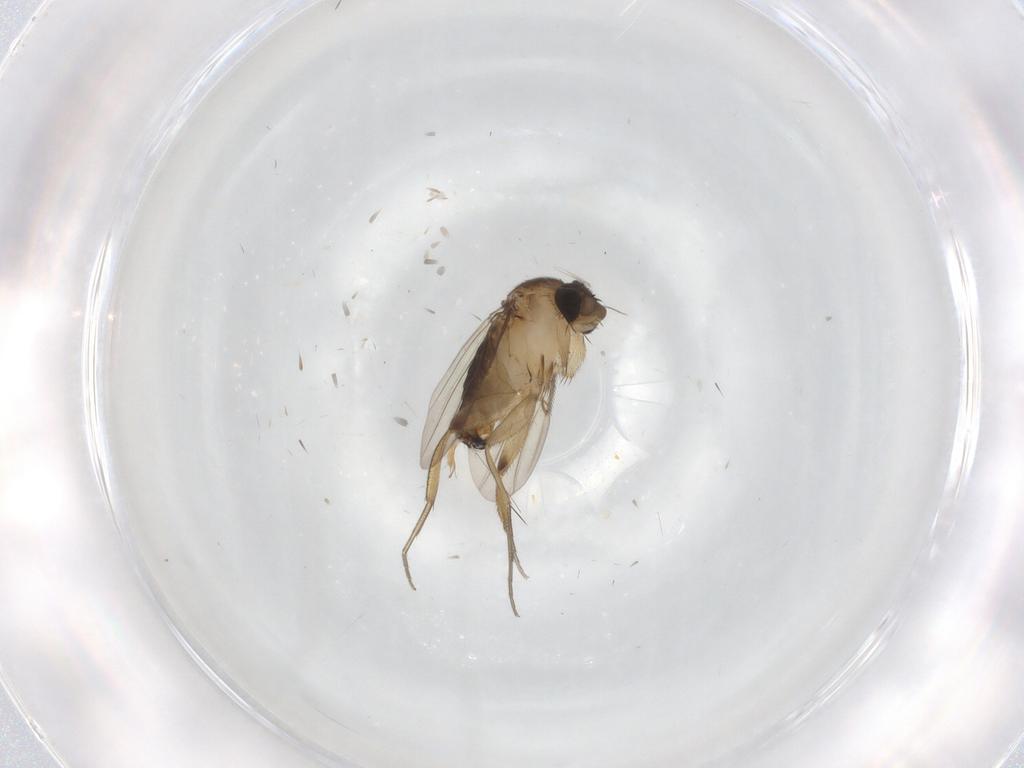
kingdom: Animalia
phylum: Arthropoda
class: Insecta
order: Diptera
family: Phoridae
